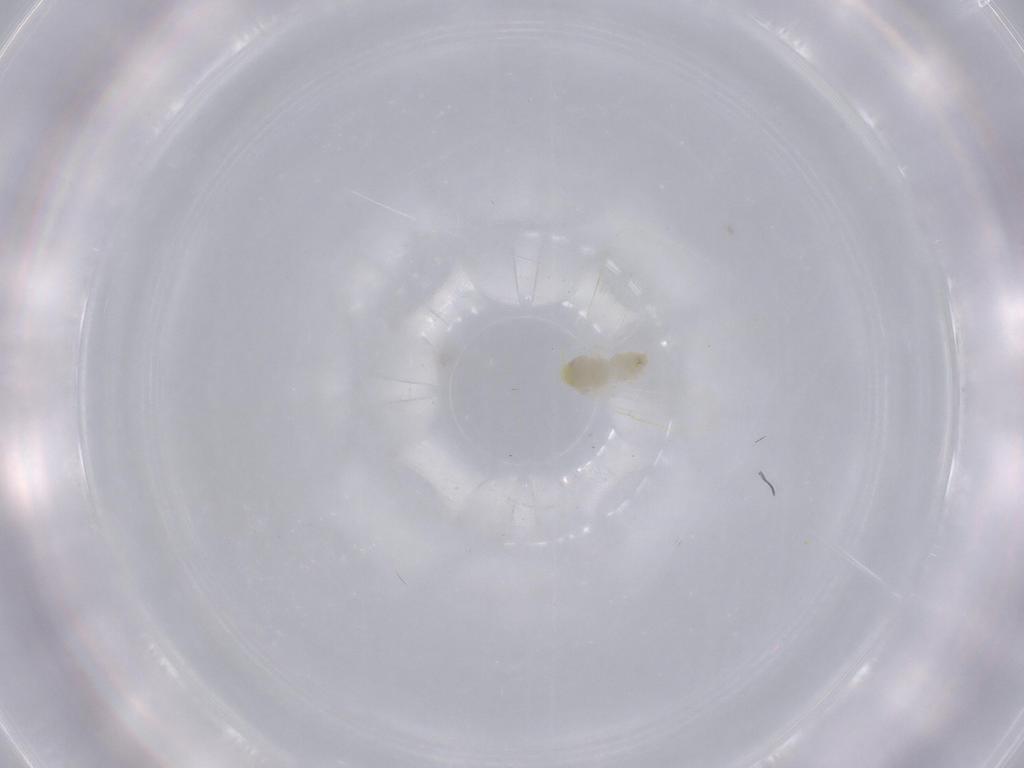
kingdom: Animalia
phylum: Arthropoda
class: Insecta
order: Hemiptera
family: Aleyrodidae
